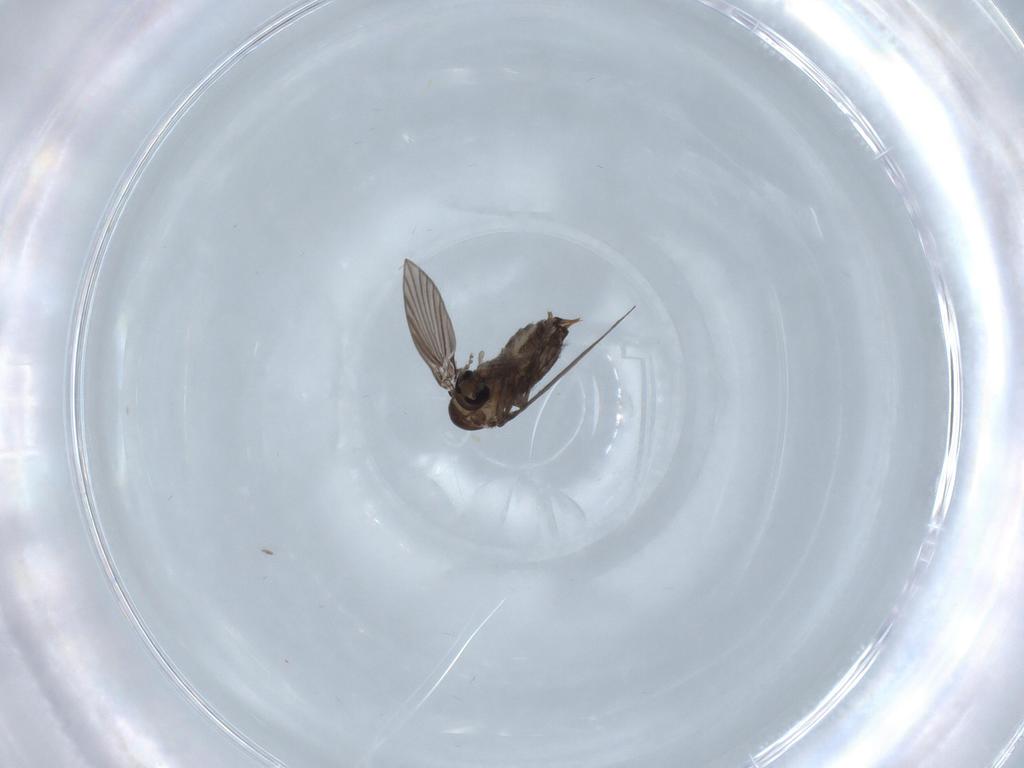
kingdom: Animalia
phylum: Arthropoda
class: Insecta
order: Diptera
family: Psychodidae
